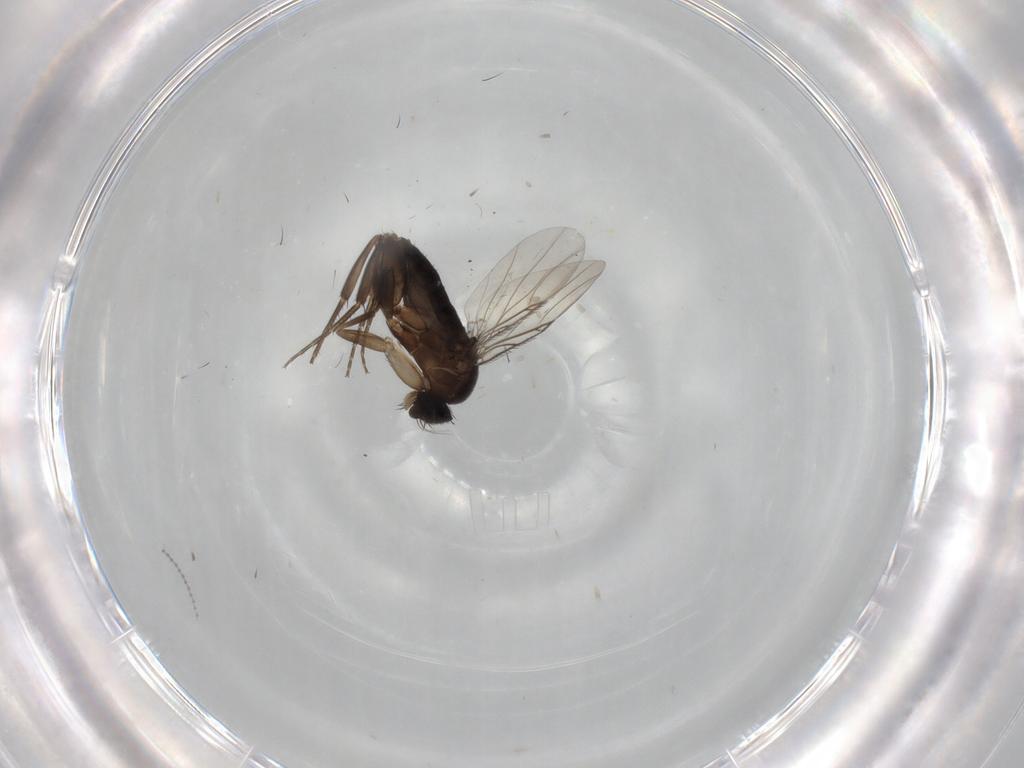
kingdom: Animalia
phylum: Arthropoda
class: Insecta
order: Diptera
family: Phoridae
